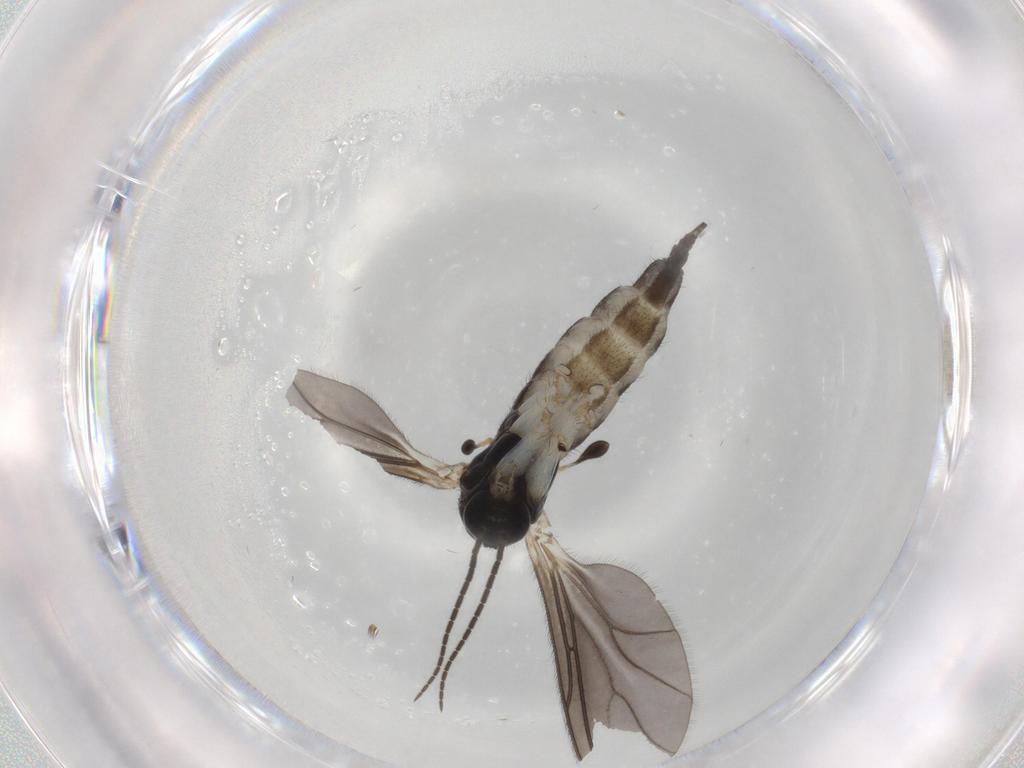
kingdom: Animalia
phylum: Arthropoda
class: Insecta
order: Diptera
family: Sciaridae
